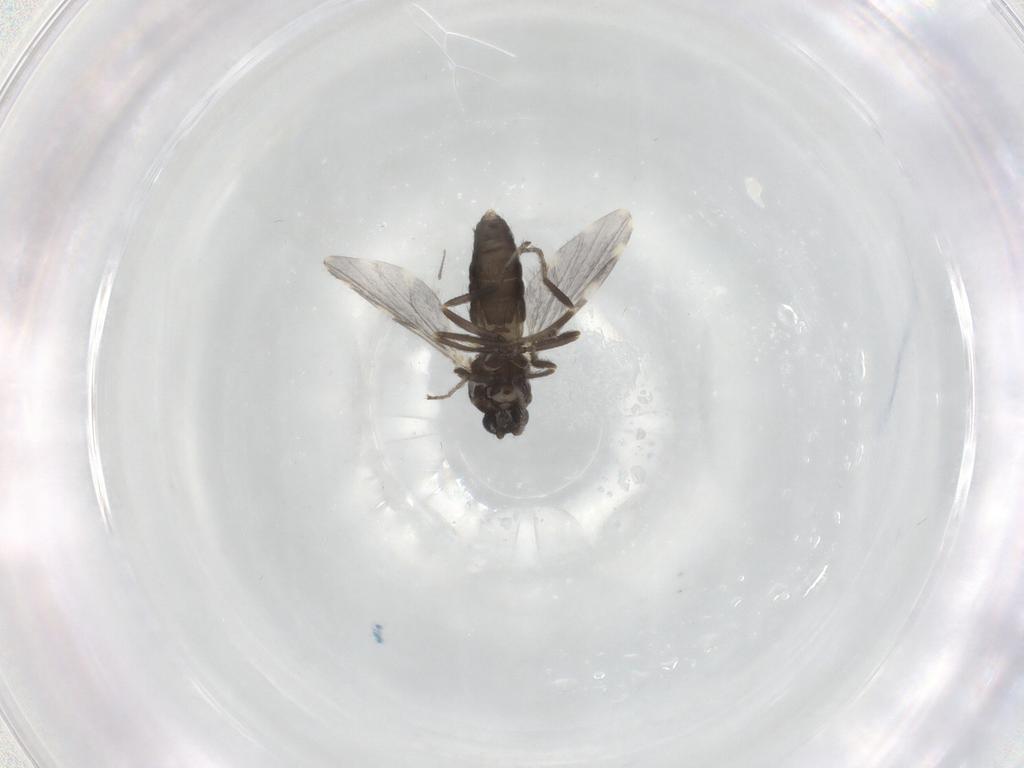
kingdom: Animalia
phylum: Arthropoda
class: Insecta
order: Diptera
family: Ceratopogonidae
